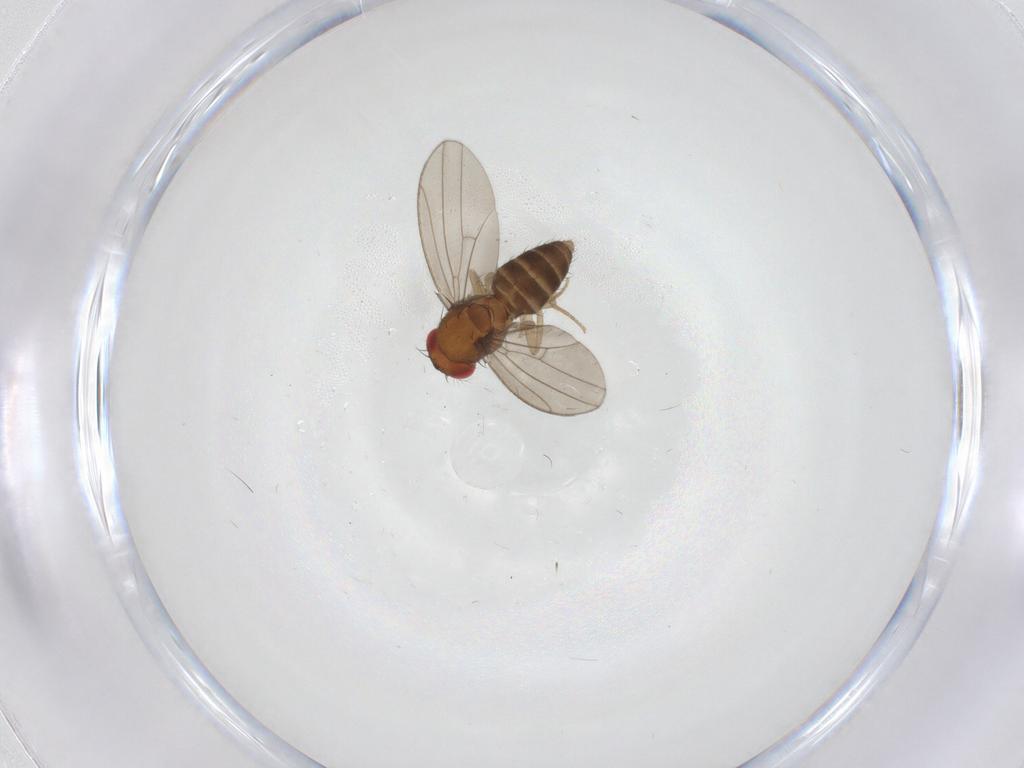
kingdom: Animalia
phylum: Arthropoda
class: Insecta
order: Diptera
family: Drosophilidae
